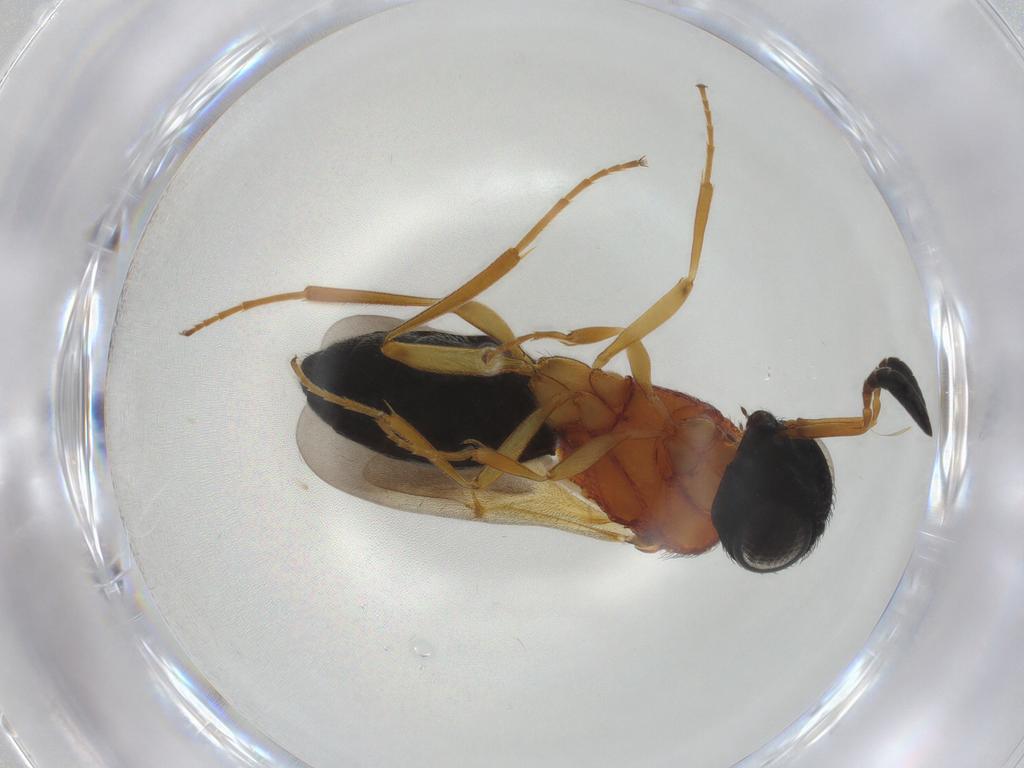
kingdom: Animalia
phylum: Arthropoda
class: Insecta
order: Hymenoptera
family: Scelionidae
